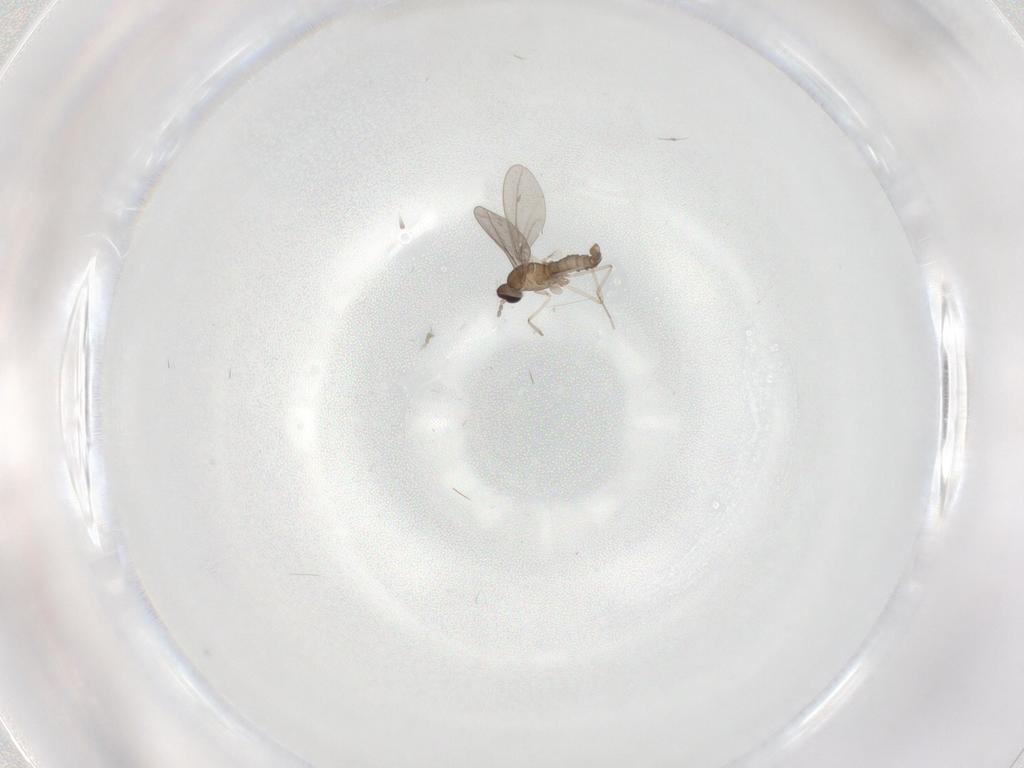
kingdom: Animalia
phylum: Arthropoda
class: Insecta
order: Diptera
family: Cecidomyiidae
